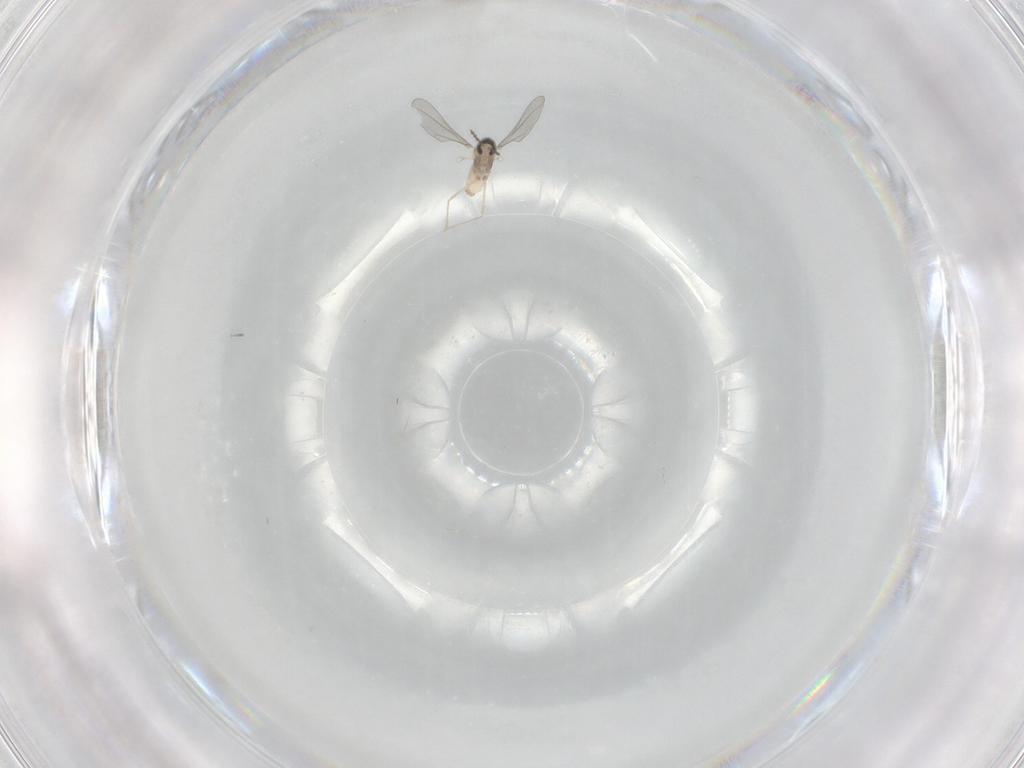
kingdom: Animalia
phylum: Arthropoda
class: Insecta
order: Diptera
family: Cecidomyiidae
